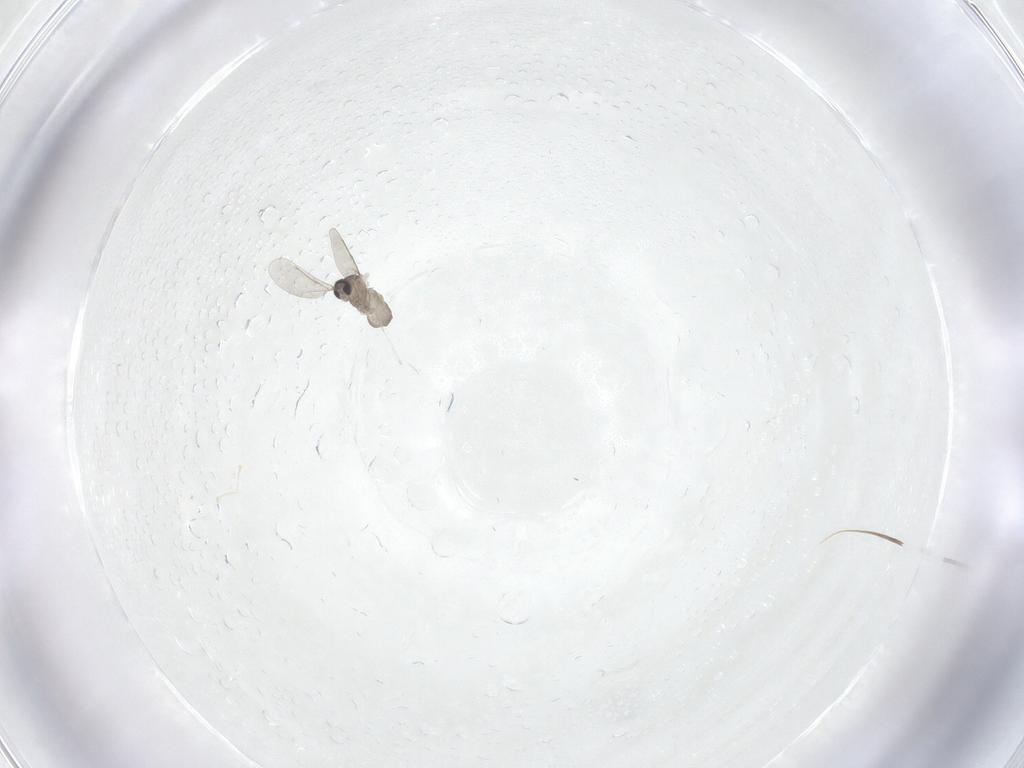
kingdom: Animalia
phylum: Arthropoda
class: Insecta
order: Diptera
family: Cecidomyiidae
